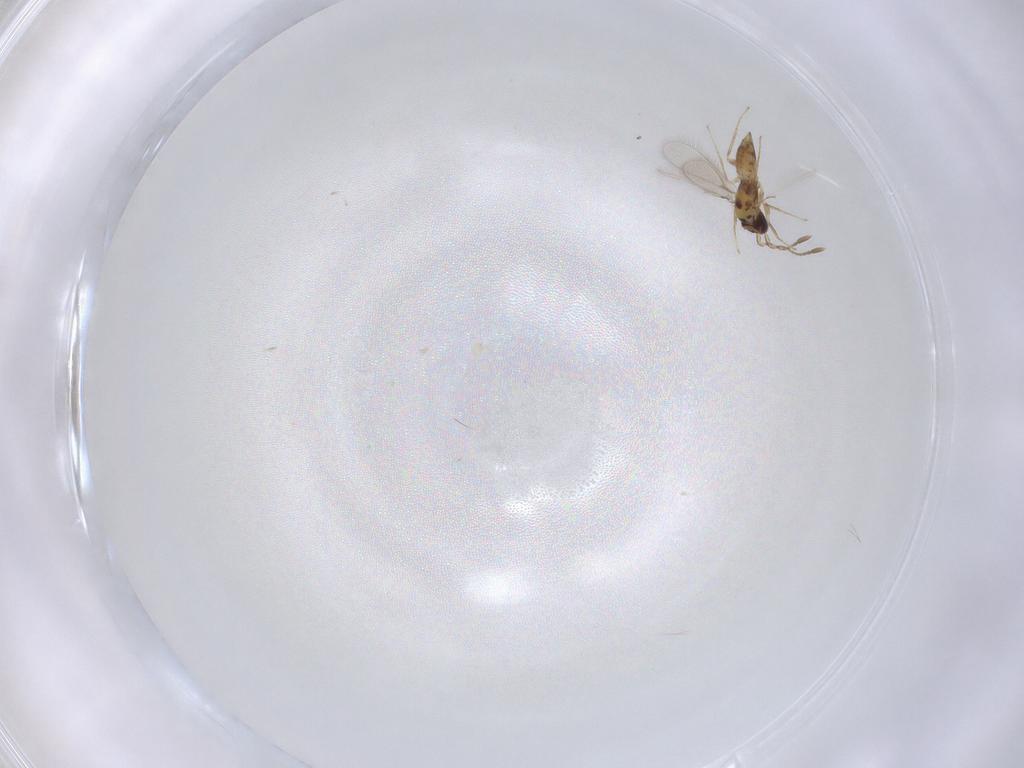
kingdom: Animalia
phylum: Arthropoda
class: Insecta
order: Hymenoptera
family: Mymaridae
